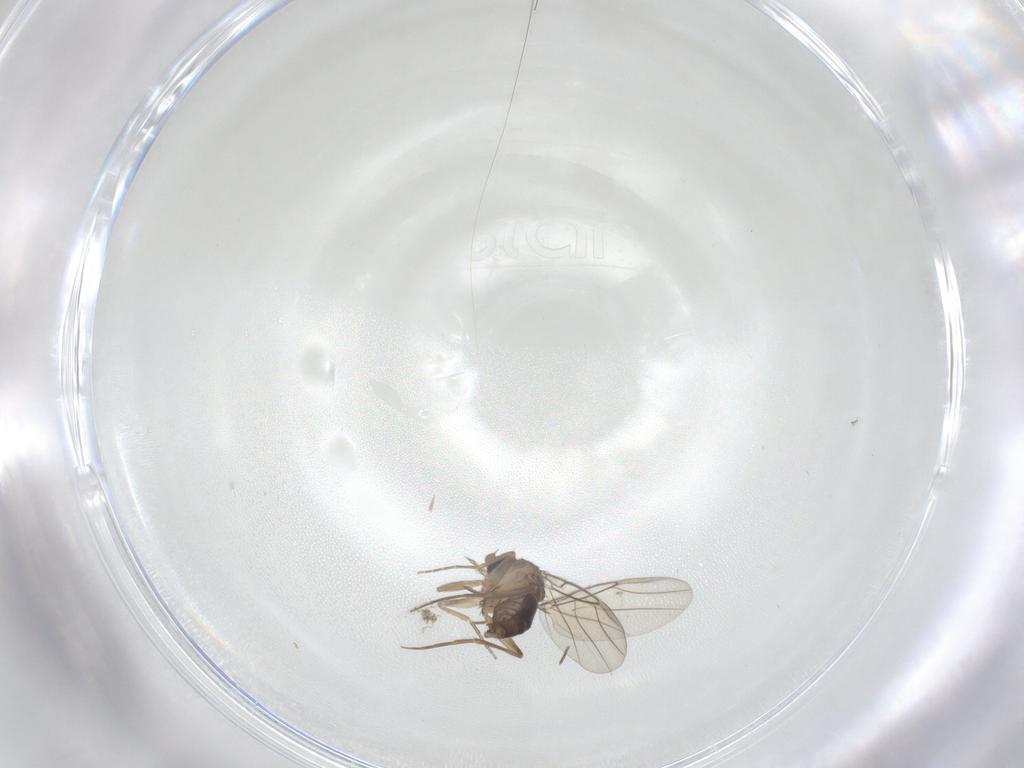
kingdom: Animalia
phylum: Arthropoda
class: Insecta
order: Diptera
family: Phoridae
